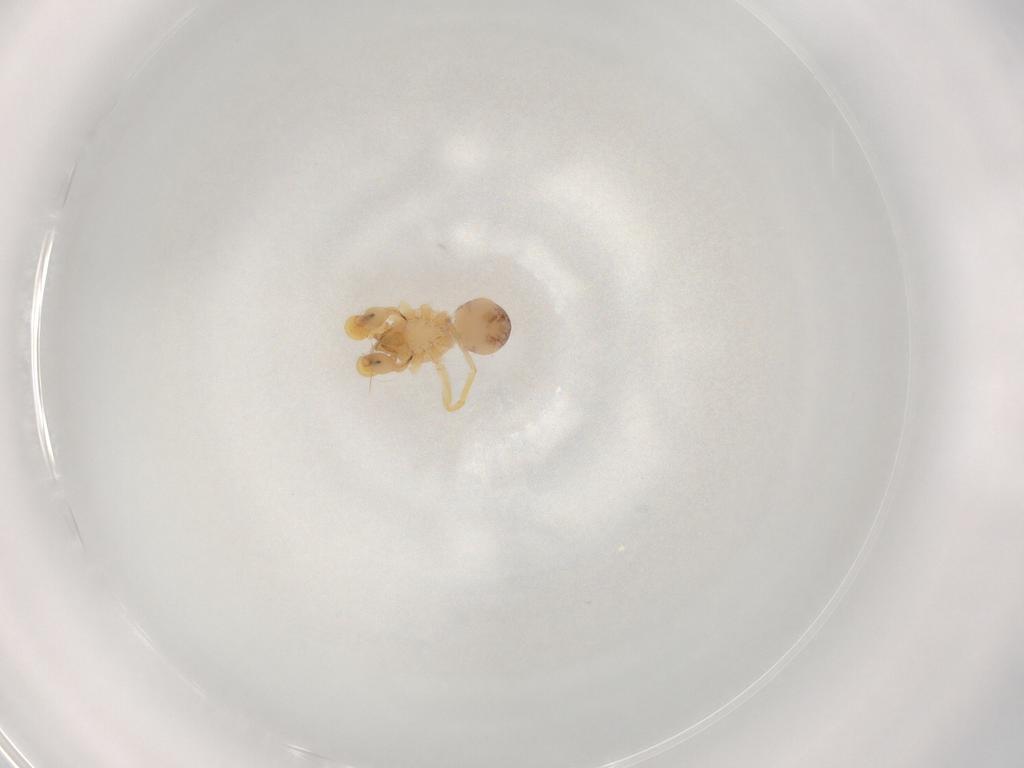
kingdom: Animalia
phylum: Arthropoda
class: Arachnida
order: Araneae
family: Dictynidae
